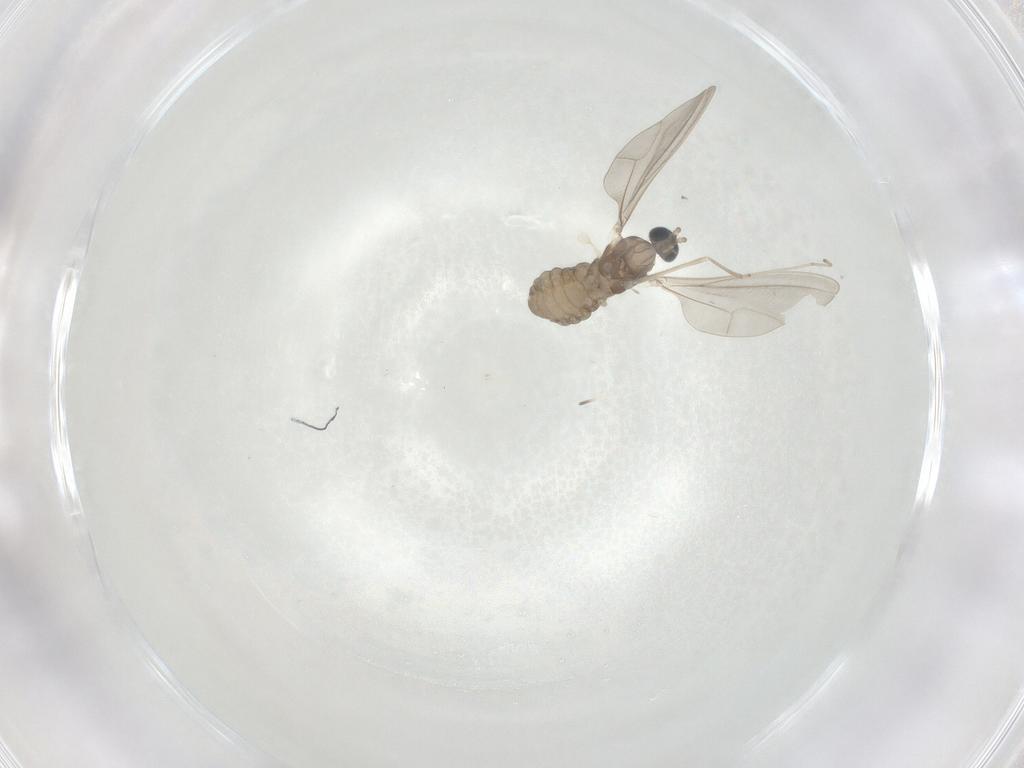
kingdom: Animalia
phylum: Arthropoda
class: Insecta
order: Diptera
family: Chironomidae
